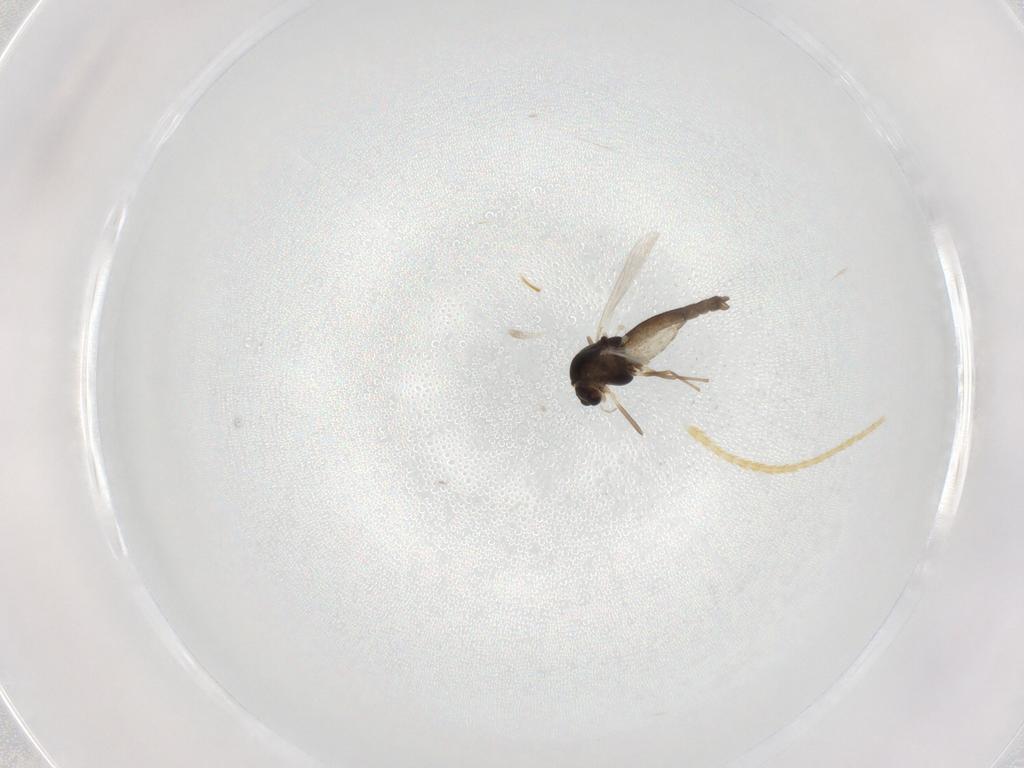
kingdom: Animalia
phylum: Arthropoda
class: Insecta
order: Diptera
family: Chironomidae
